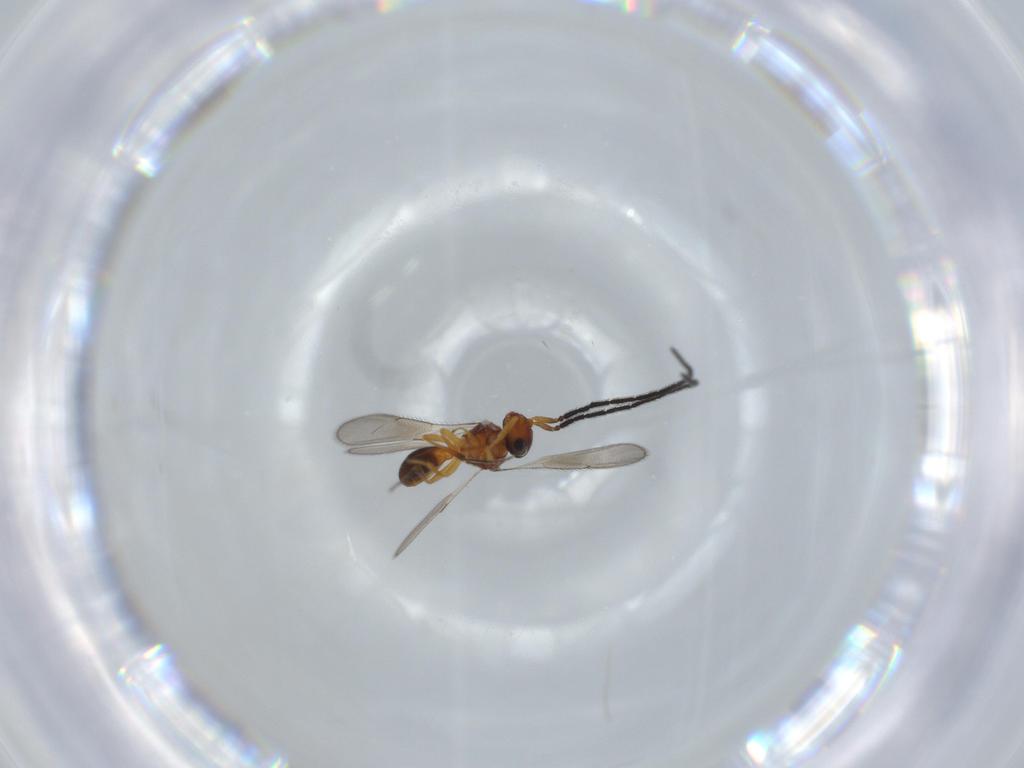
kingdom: Animalia
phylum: Arthropoda
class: Insecta
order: Hymenoptera
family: Scelionidae
